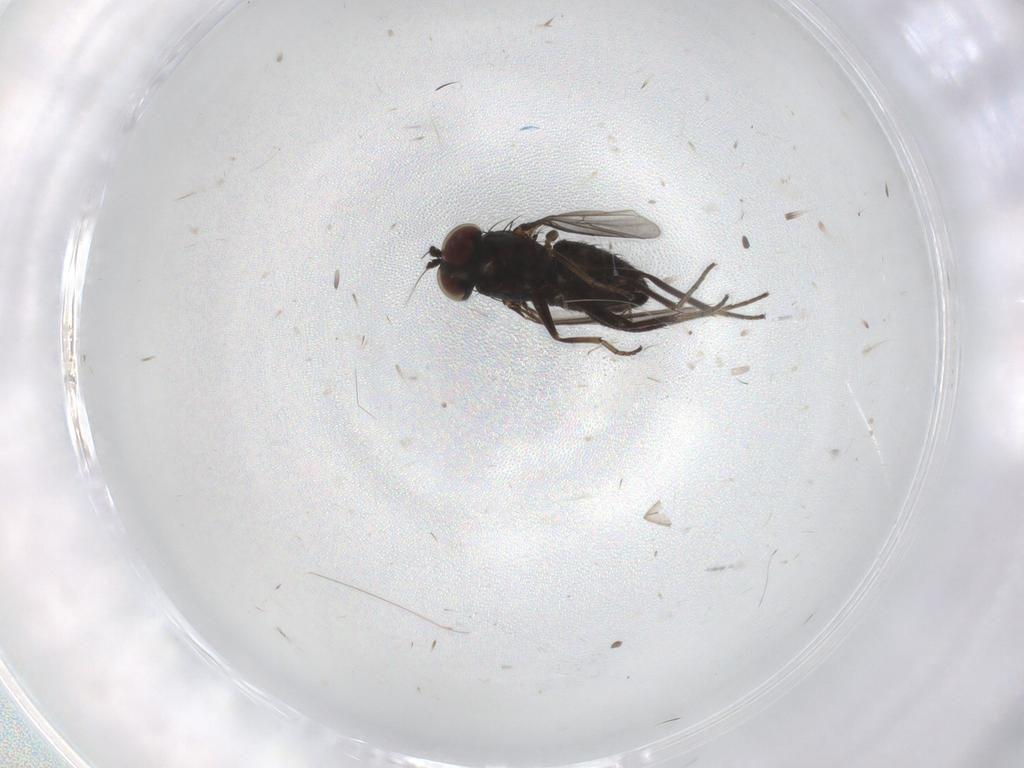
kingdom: Animalia
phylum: Arthropoda
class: Insecta
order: Diptera
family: Dolichopodidae
